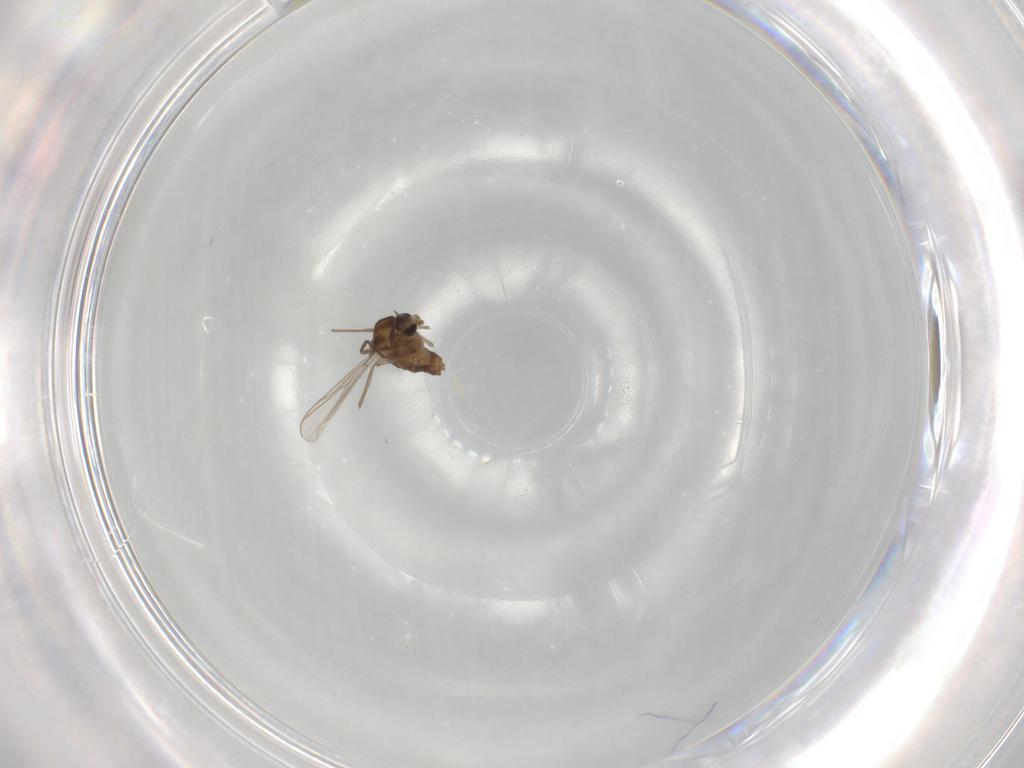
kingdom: Animalia
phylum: Arthropoda
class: Insecta
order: Diptera
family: Chironomidae
